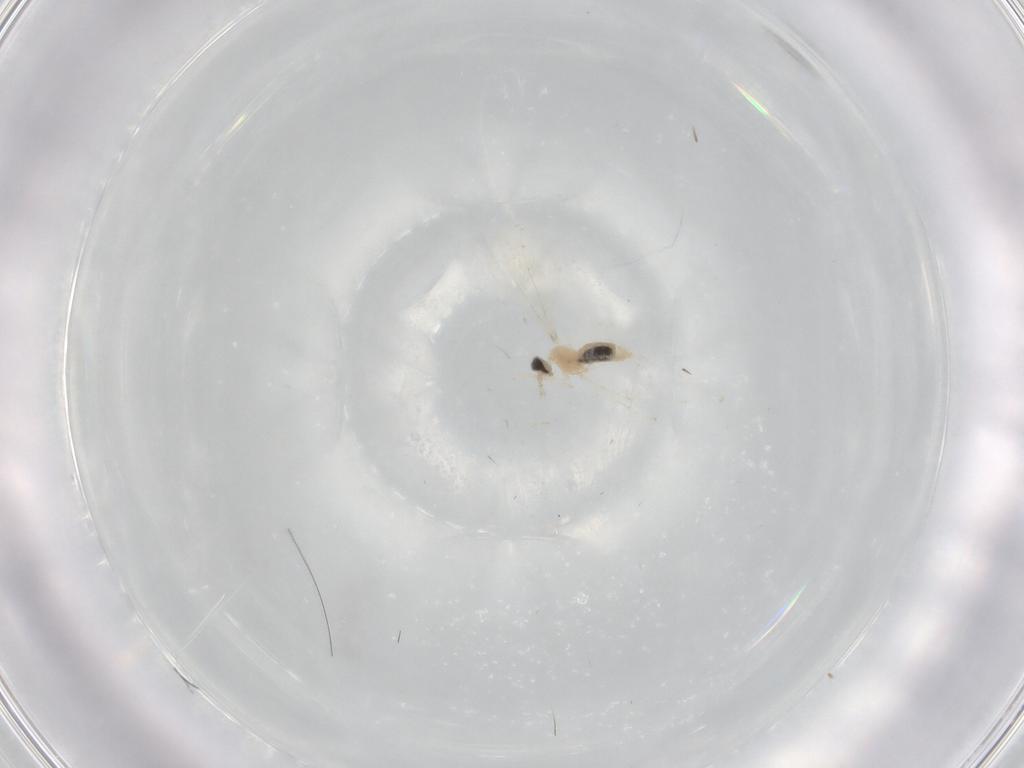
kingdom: Animalia
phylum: Arthropoda
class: Insecta
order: Diptera
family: Cecidomyiidae
